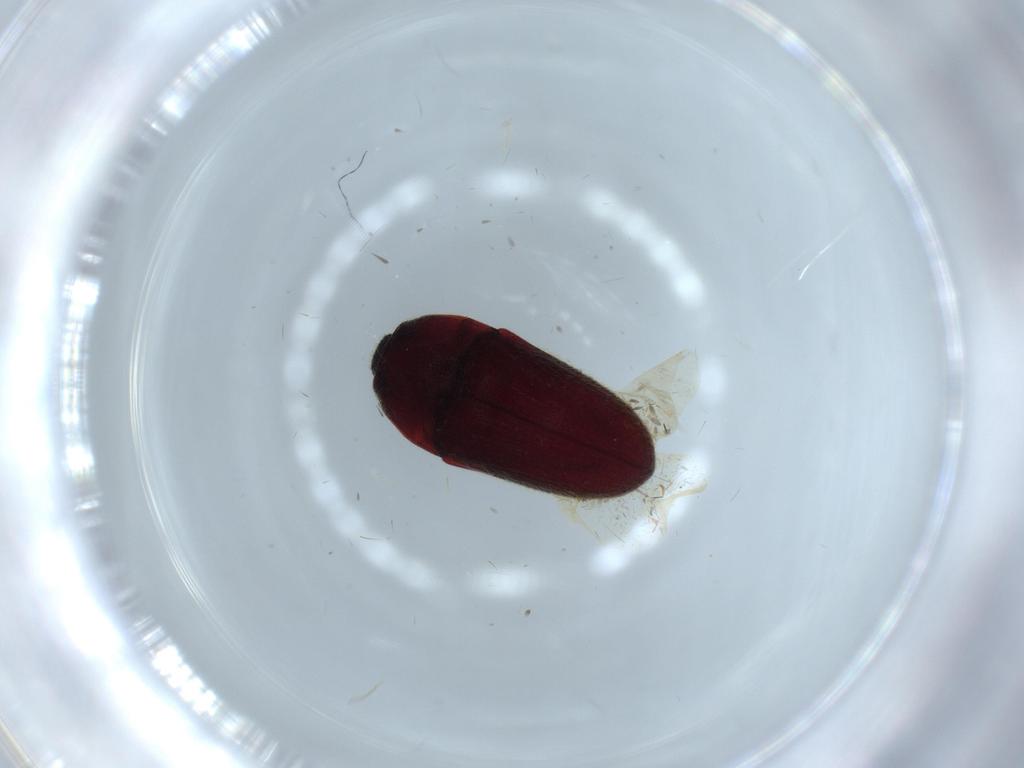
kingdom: Animalia
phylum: Arthropoda
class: Insecta
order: Coleoptera
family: Throscidae
